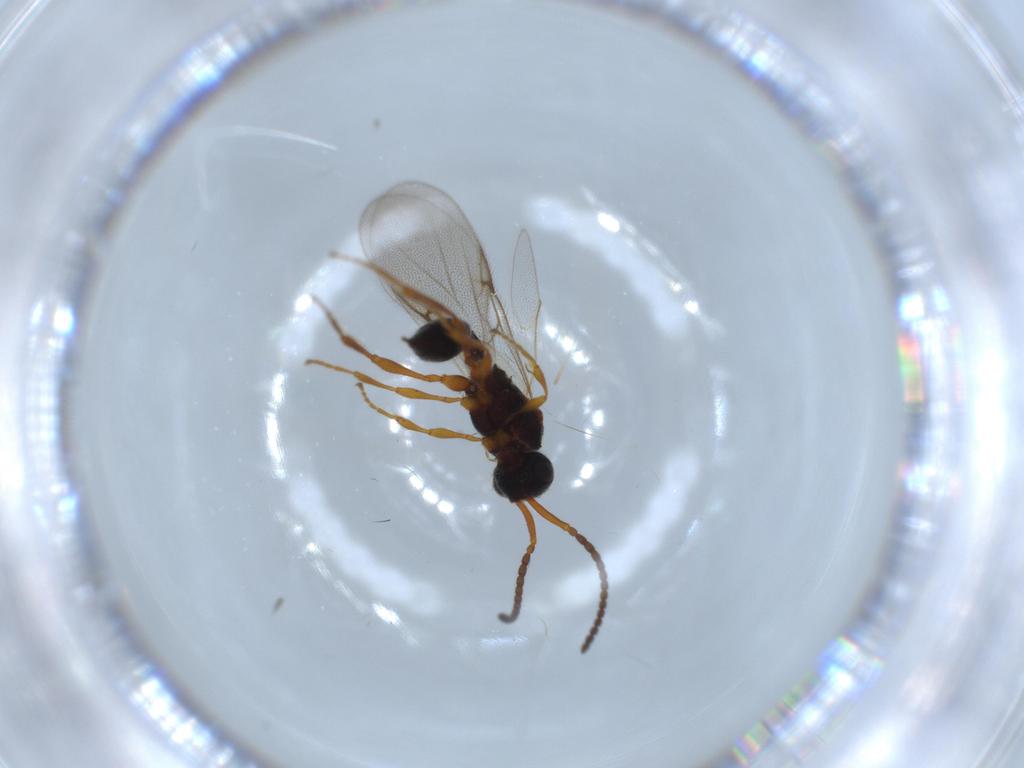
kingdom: Animalia
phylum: Arthropoda
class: Insecta
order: Hymenoptera
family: Diapriidae
